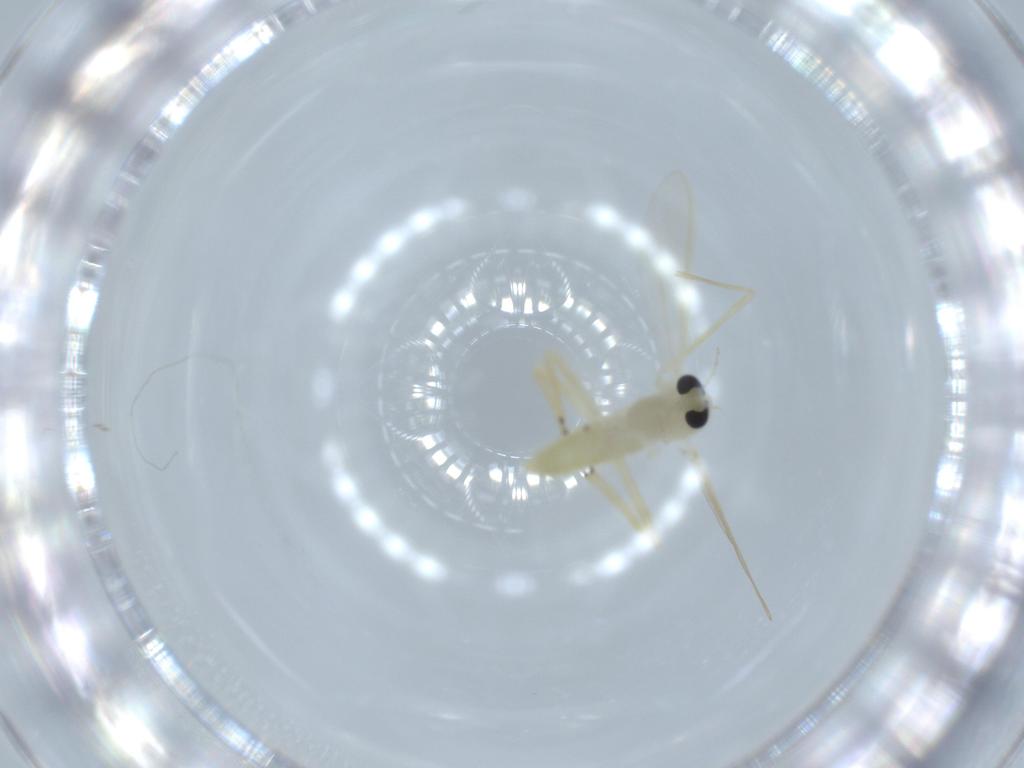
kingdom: Animalia
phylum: Arthropoda
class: Insecta
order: Diptera
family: Chironomidae
